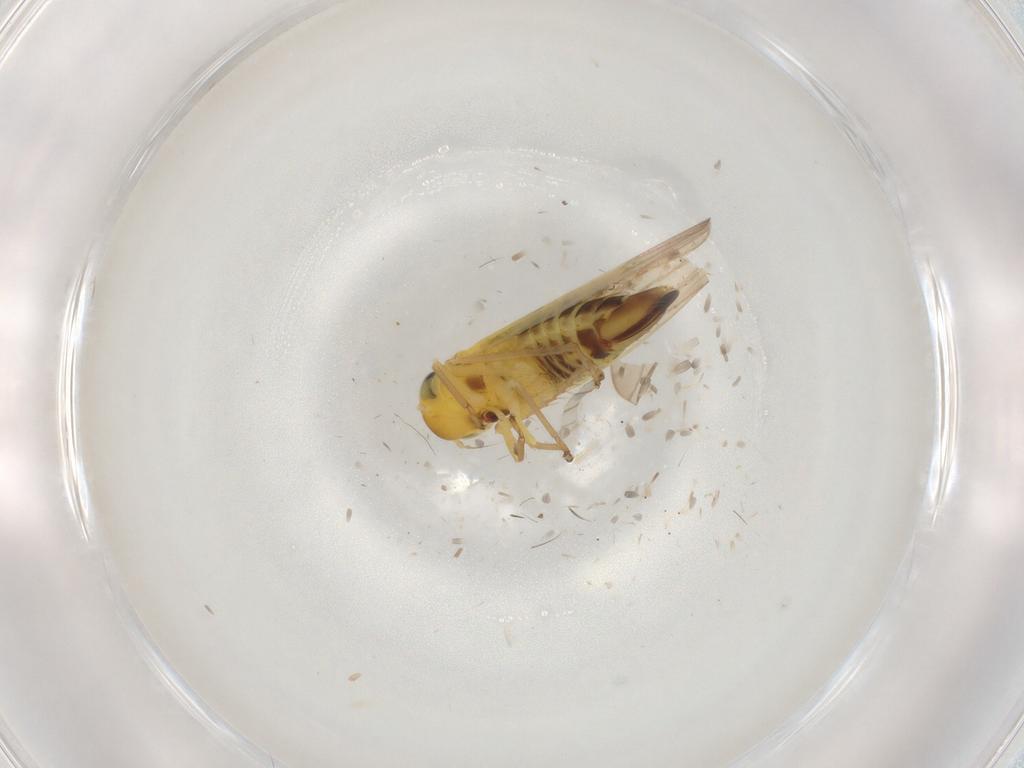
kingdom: Animalia
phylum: Arthropoda
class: Insecta
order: Hemiptera
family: Cicadellidae
